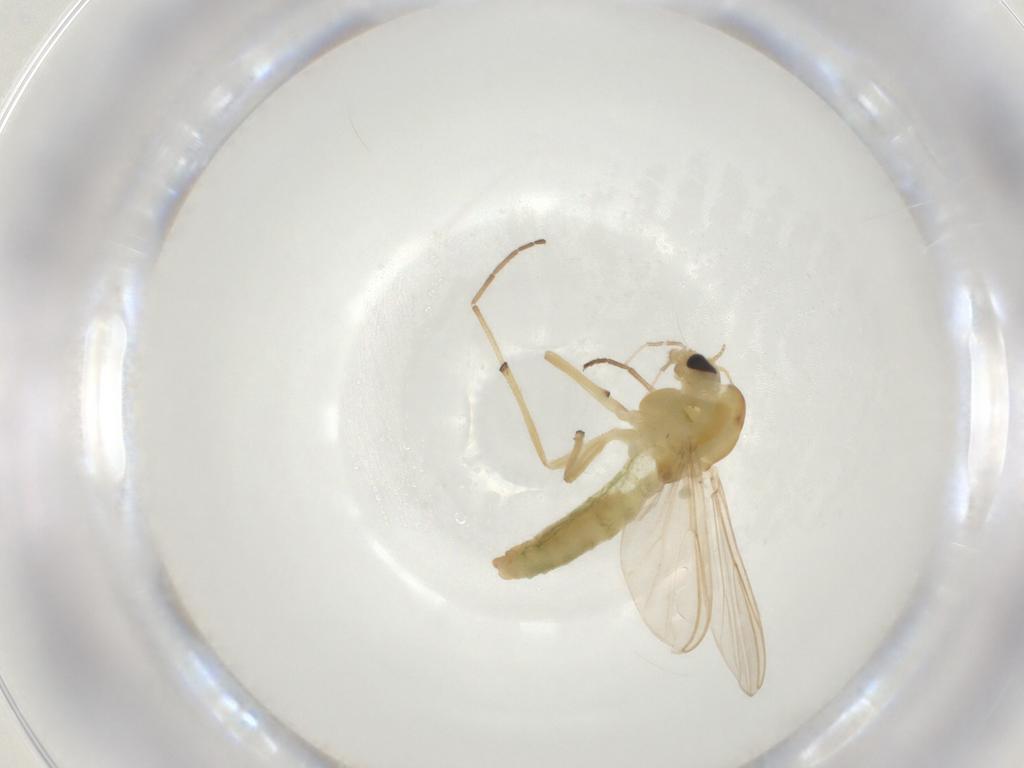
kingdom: Animalia
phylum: Arthropoda
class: Insecta
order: Diptera
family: Chironomidae
